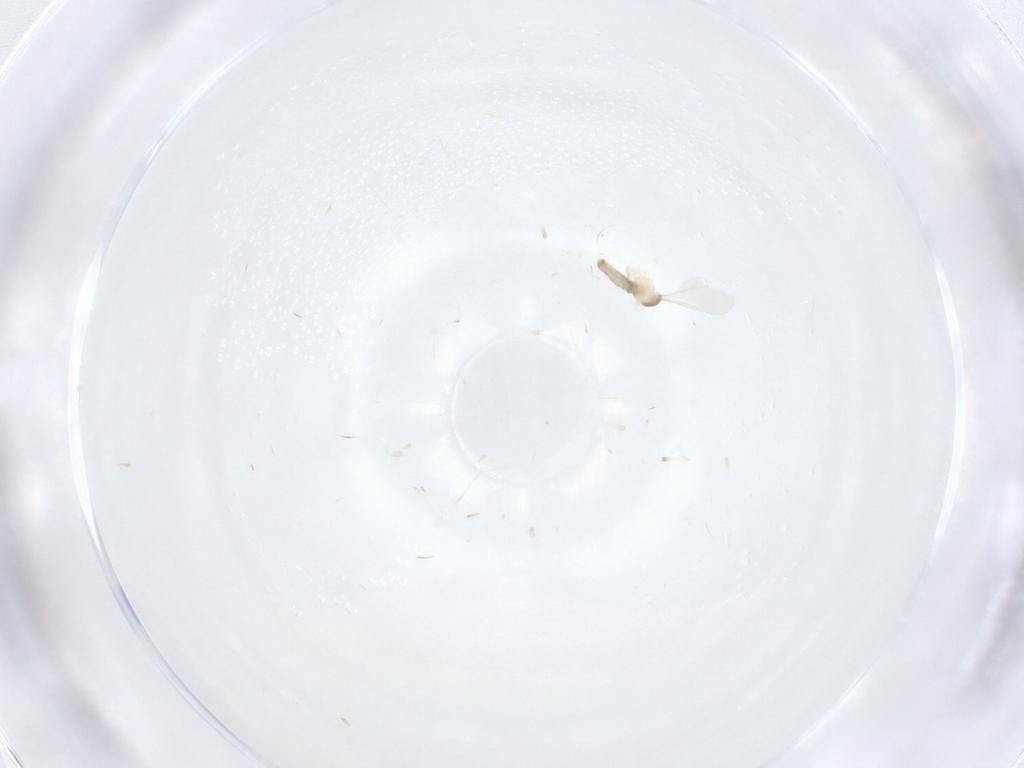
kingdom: Animalia
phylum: Arthropoda
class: Insecta
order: Diptera
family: Cecidomyiidae
